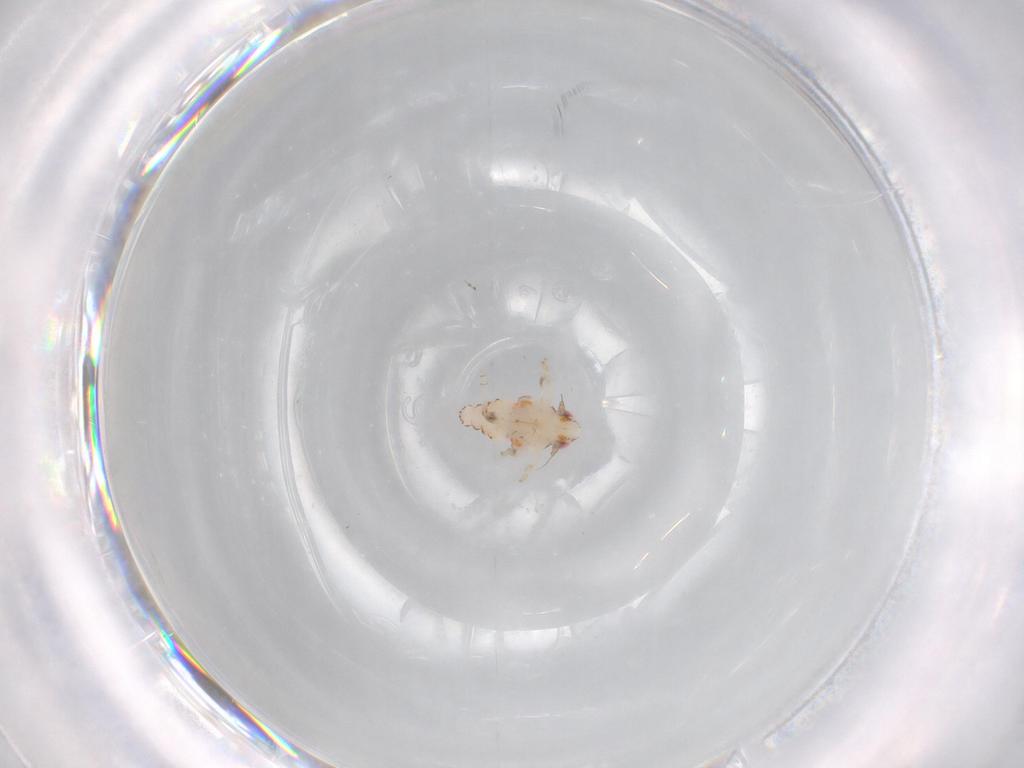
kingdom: Animalia
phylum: Arthropoda
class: Insecta
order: Hemiptera
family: Nogodinidae
